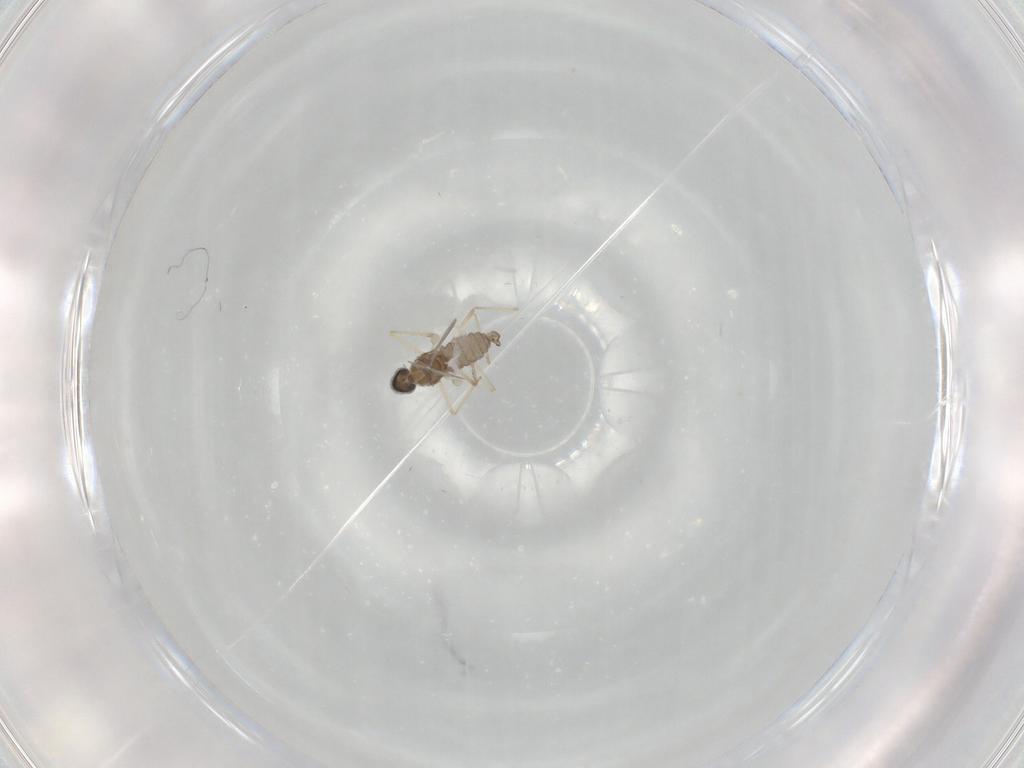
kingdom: Animalia
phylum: Arthropoda
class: Insecta
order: Diptera
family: Cecidomyiidae
